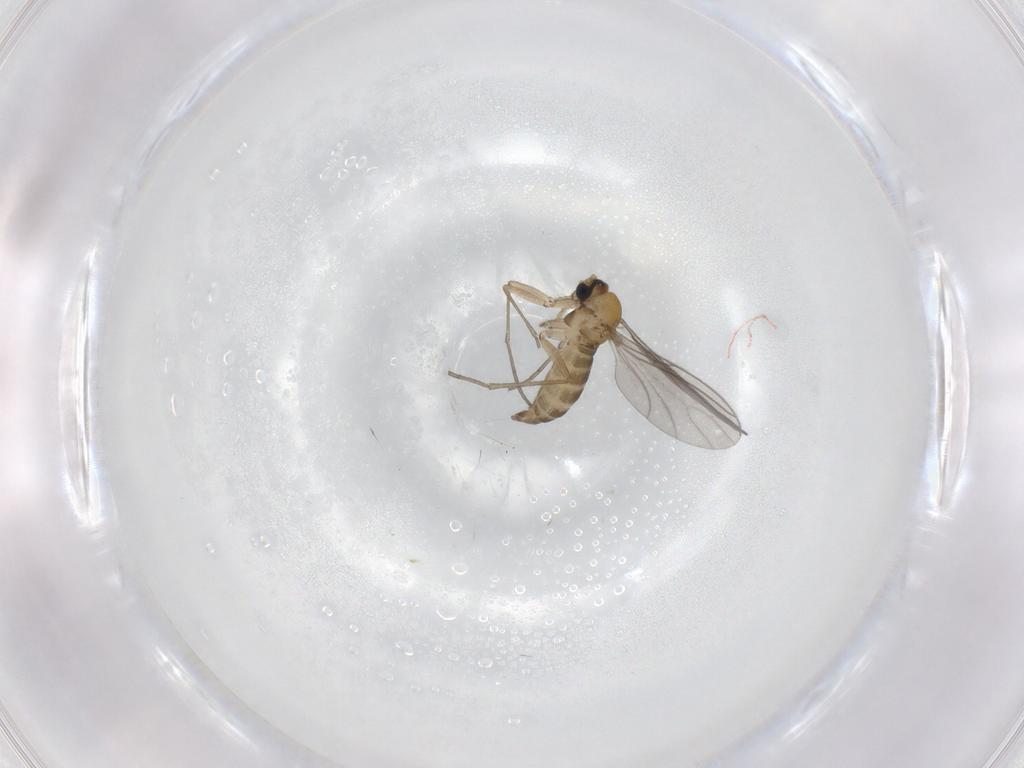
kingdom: Animalia
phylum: Arthropoda
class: Insecta
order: Diptera
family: Sciaridae
